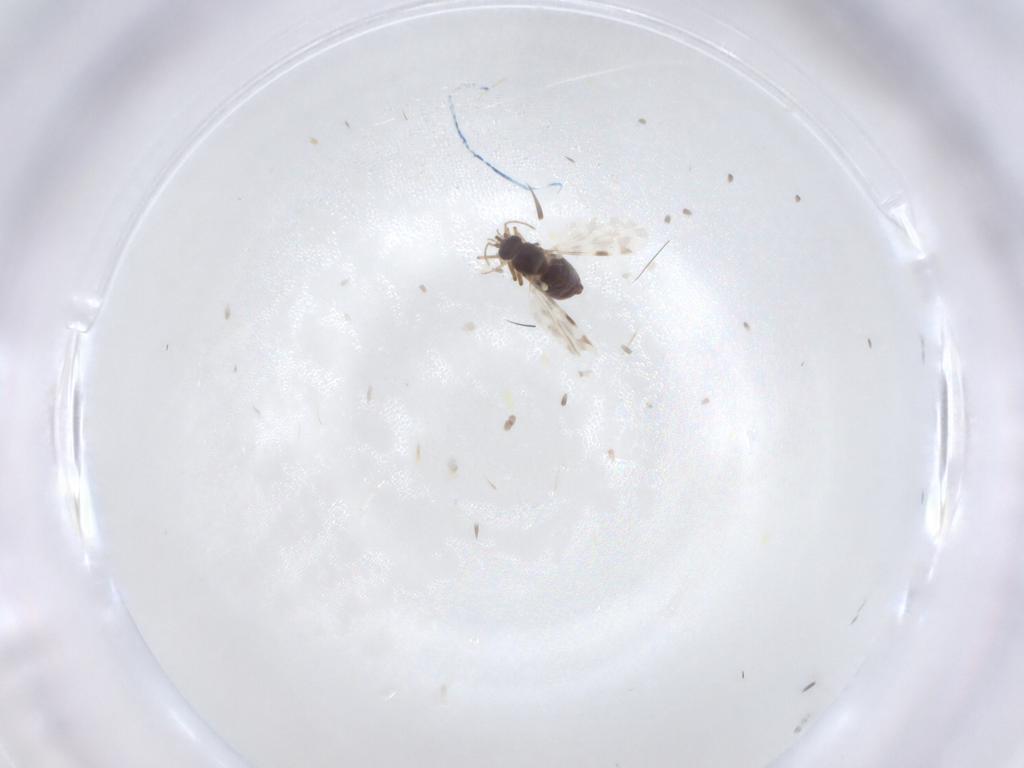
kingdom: Animalia
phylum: Arthropoda
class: Insecta
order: Diptera
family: Ceratopogonidae
